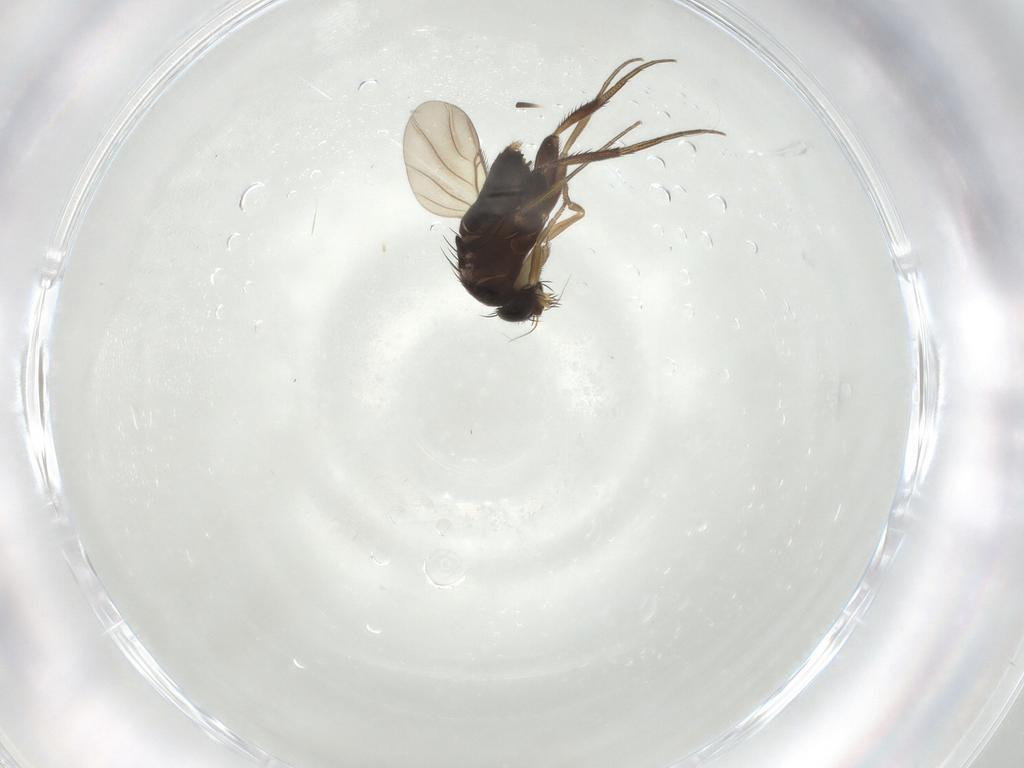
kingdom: Animalia
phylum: Arthropoda
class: Insecta
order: Diptera
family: Phoridae
